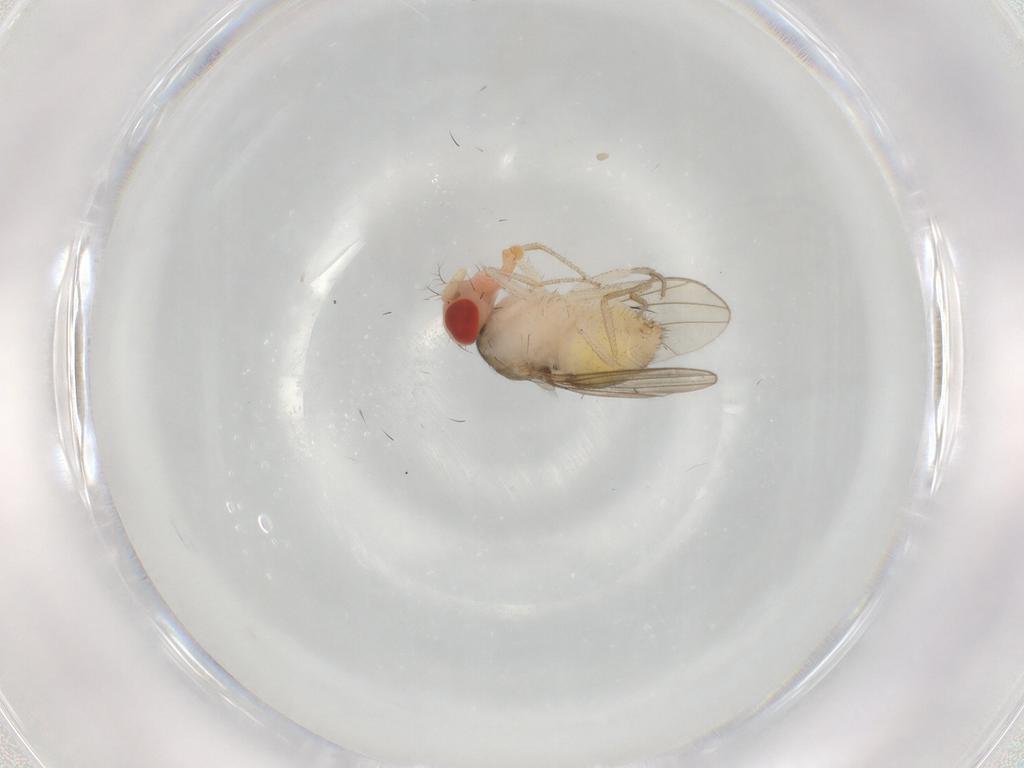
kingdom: Animalia
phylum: Arthropoda
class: Insecta
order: Diptera
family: Drosophilidae
